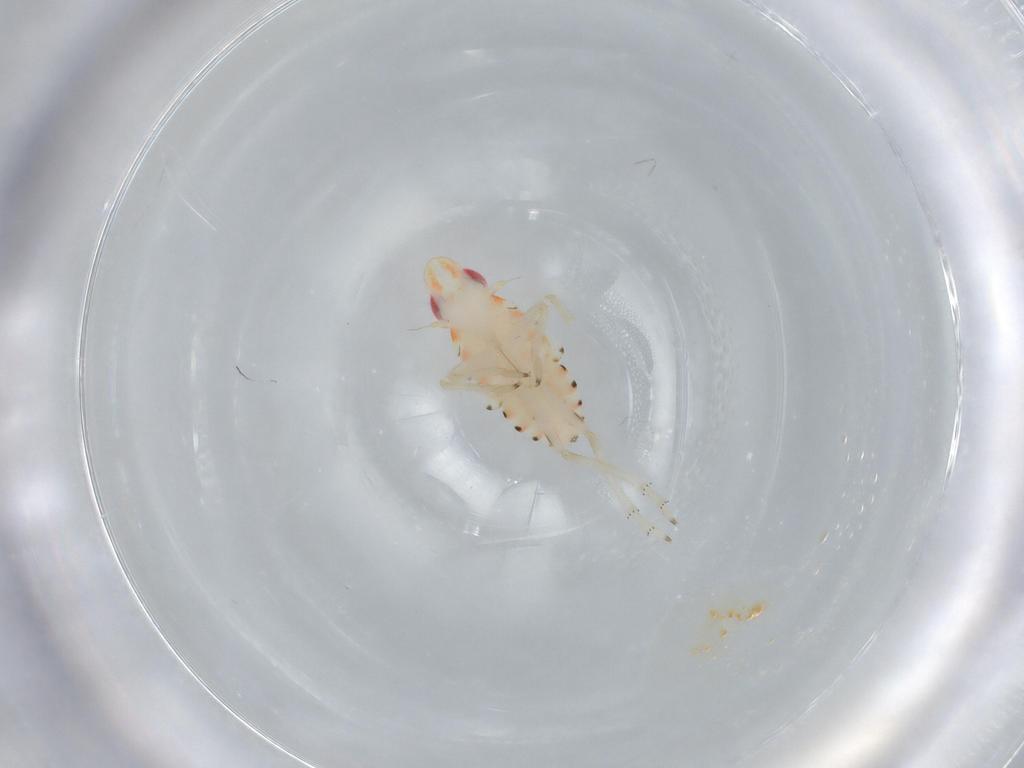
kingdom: Animalia
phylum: Arthropoda
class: Insecta
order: Hemiptera
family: Tropiduchidae
